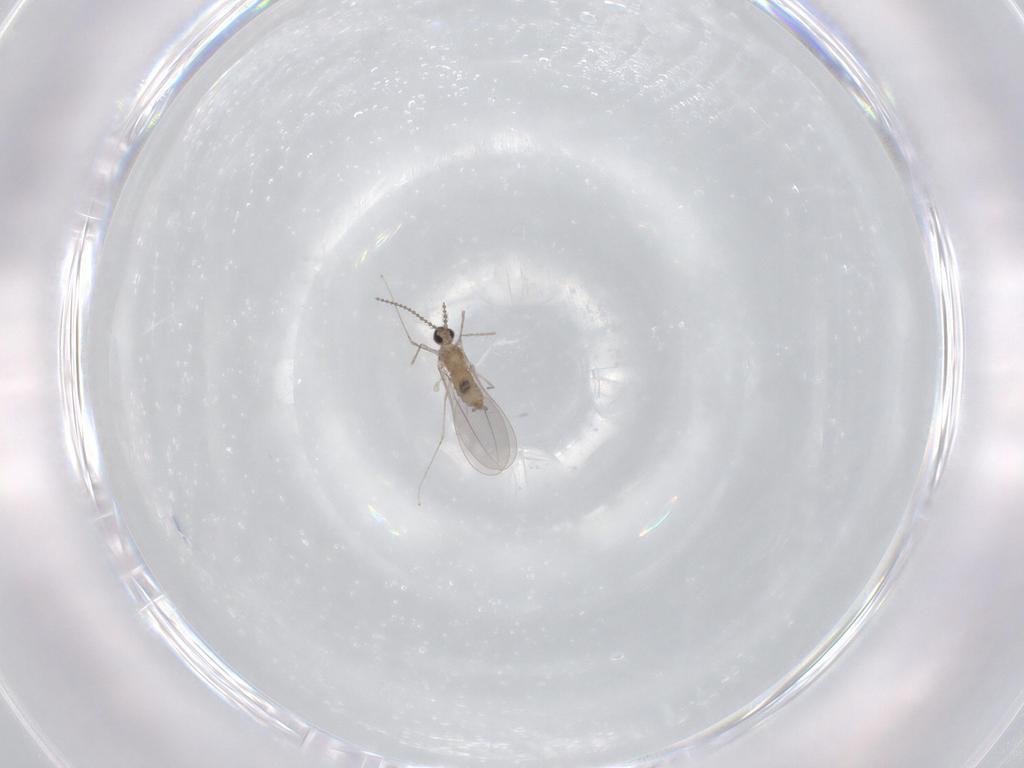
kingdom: Animalia
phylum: Arthropoda
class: Insecta
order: Diptera
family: Cecidomyiidae
